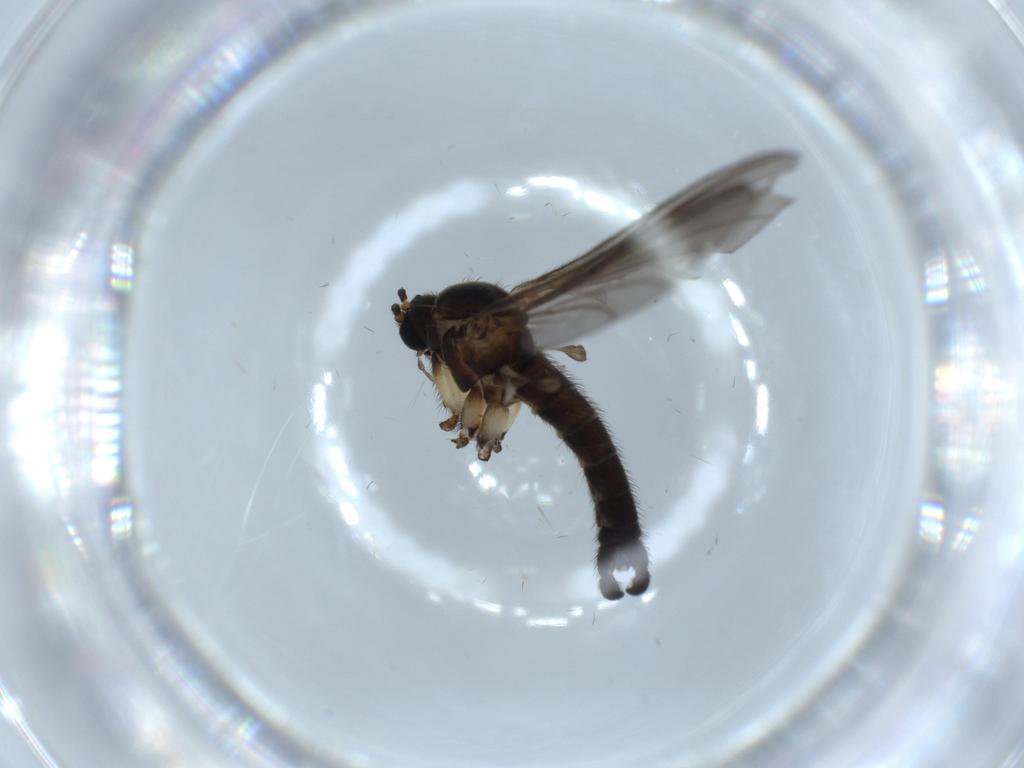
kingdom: Animalia
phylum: Arthropoda
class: Insecta
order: Diptera
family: Sciaridae
